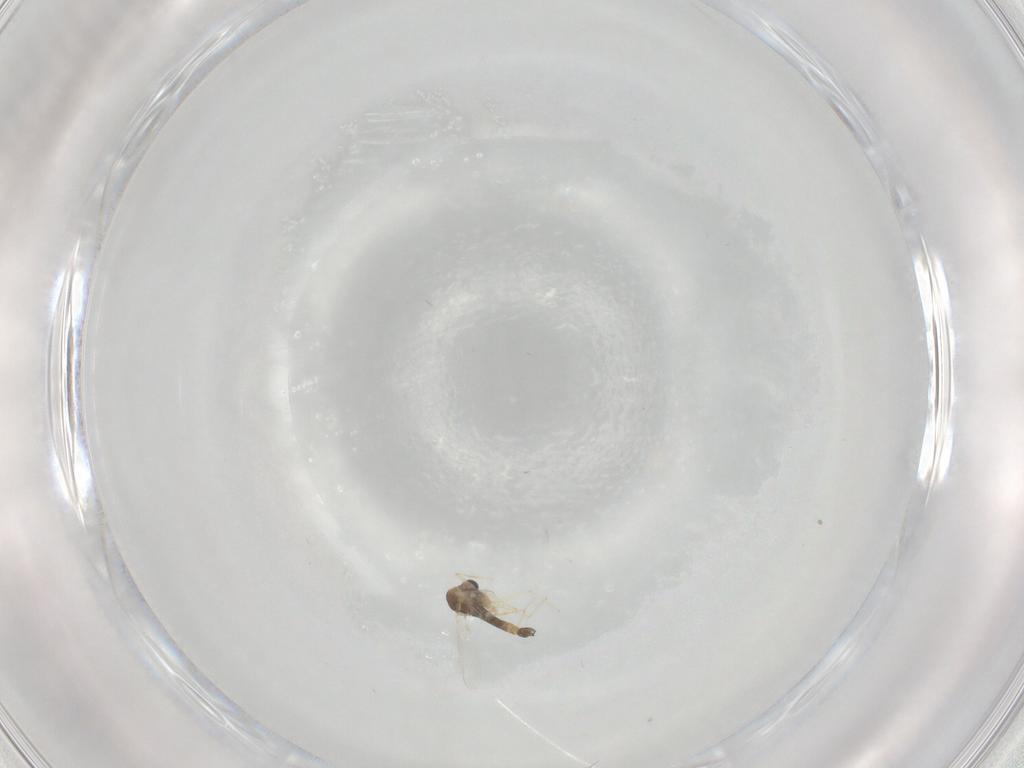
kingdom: Animalia
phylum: Arthropoda
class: Insecta
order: Diptera
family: Chironomidae
